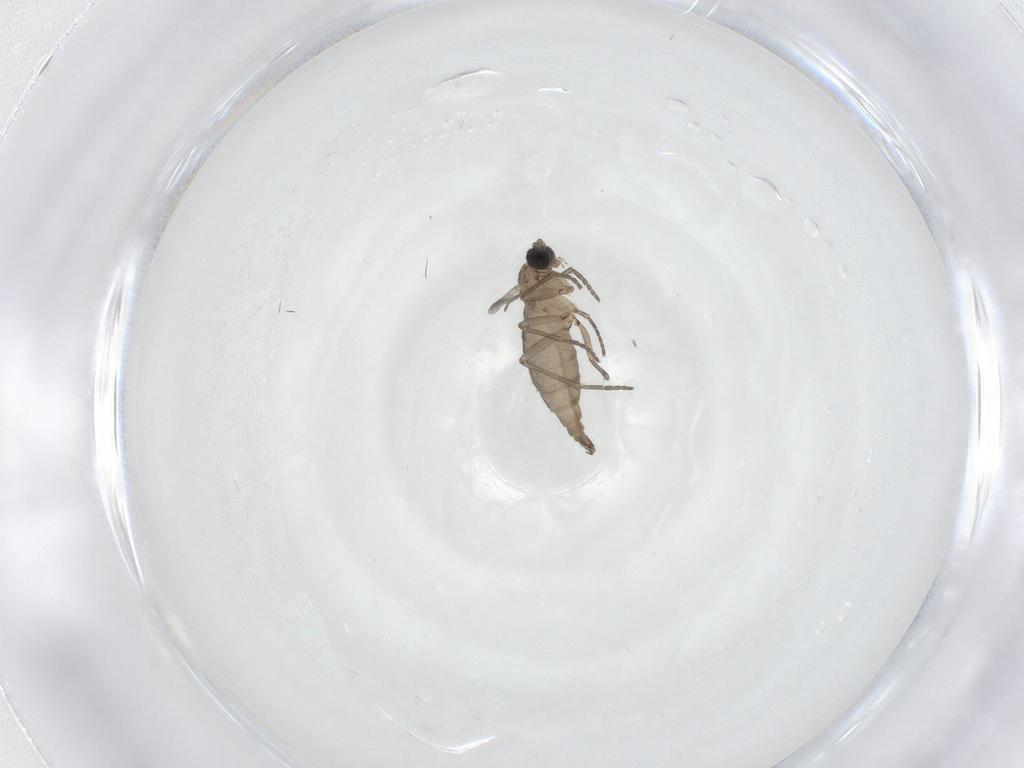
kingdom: Animalia
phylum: Arthropoda
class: Insecta
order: Diptera
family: Sciaridae
